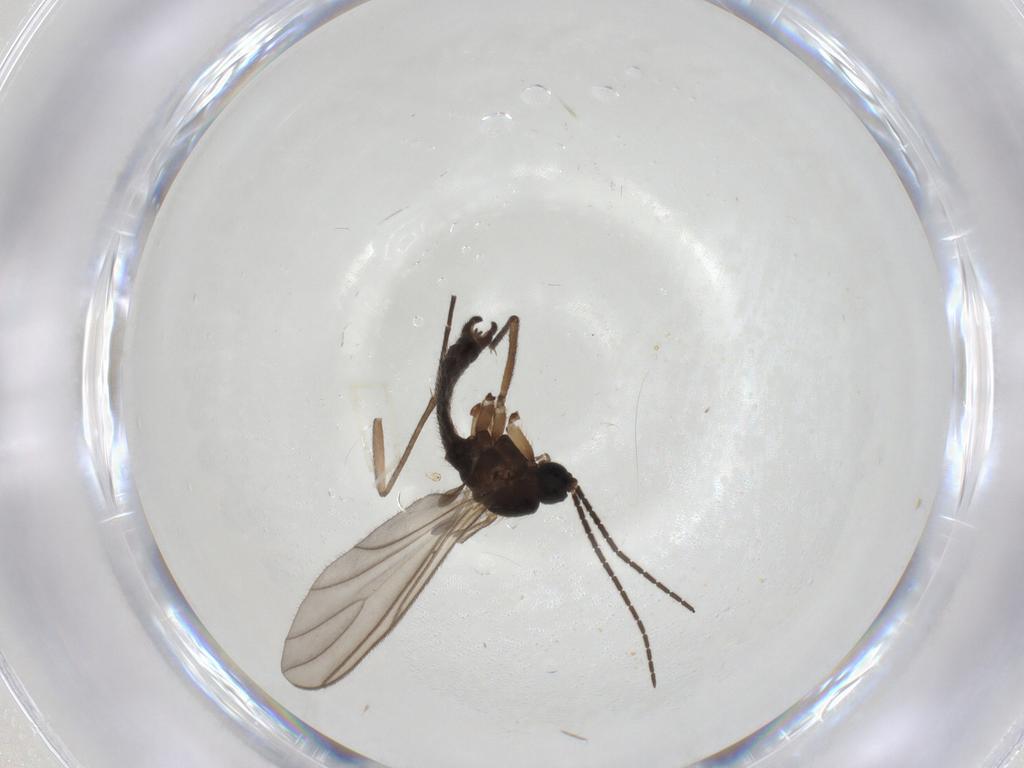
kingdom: Animalia
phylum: Arthropoda
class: Insecta
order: Diptera
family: Sciaridae
